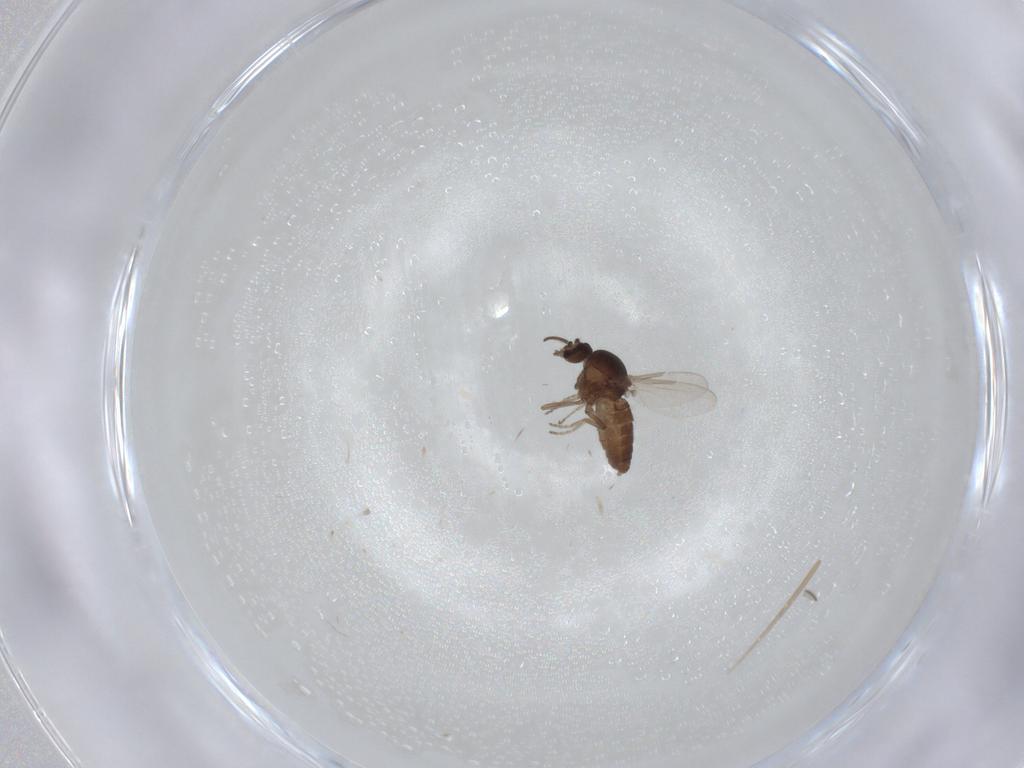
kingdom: Animalia
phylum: Arthropoda
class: Insecta
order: Diptera
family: Ceratopogonidae
